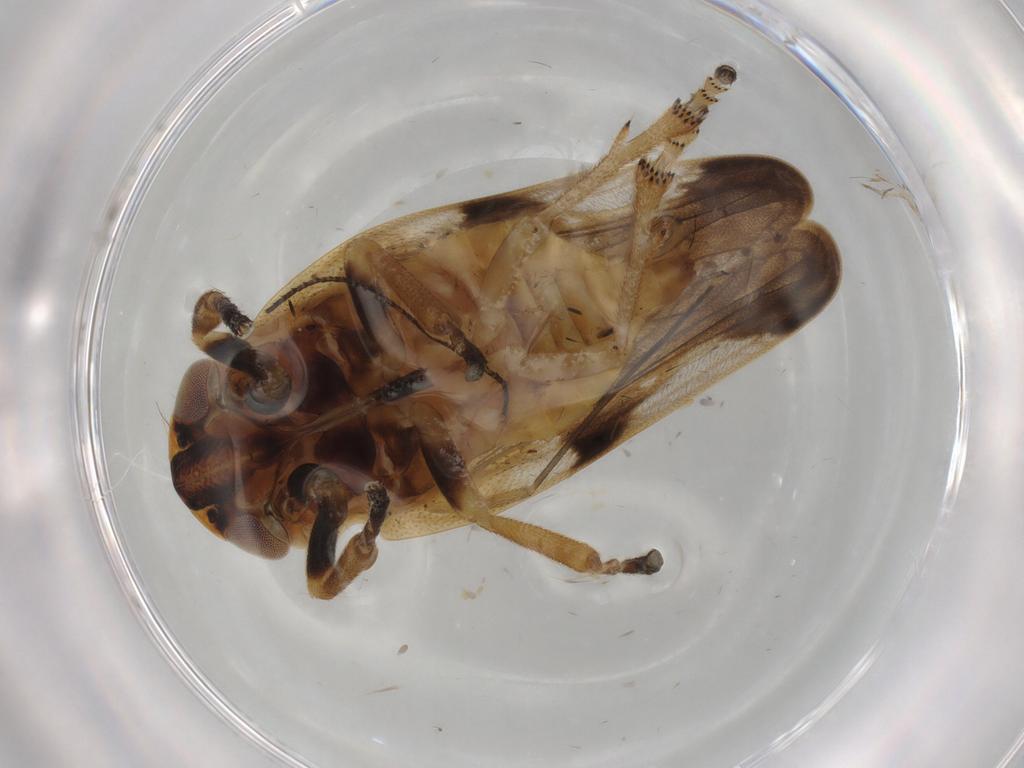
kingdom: Animalia
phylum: Arthropoda
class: Insecta
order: Hemiptera
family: Aphrophoridae
